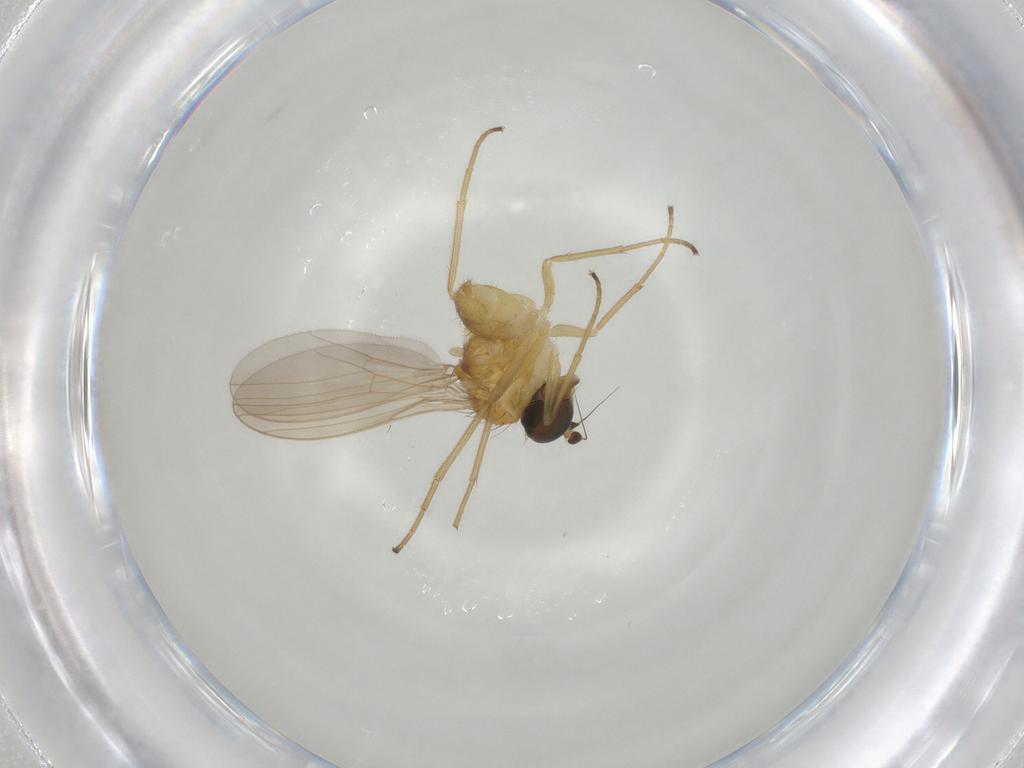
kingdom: Animalia
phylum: Arthropoda
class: Insecta
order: Diptera
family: Dolichopodidae
